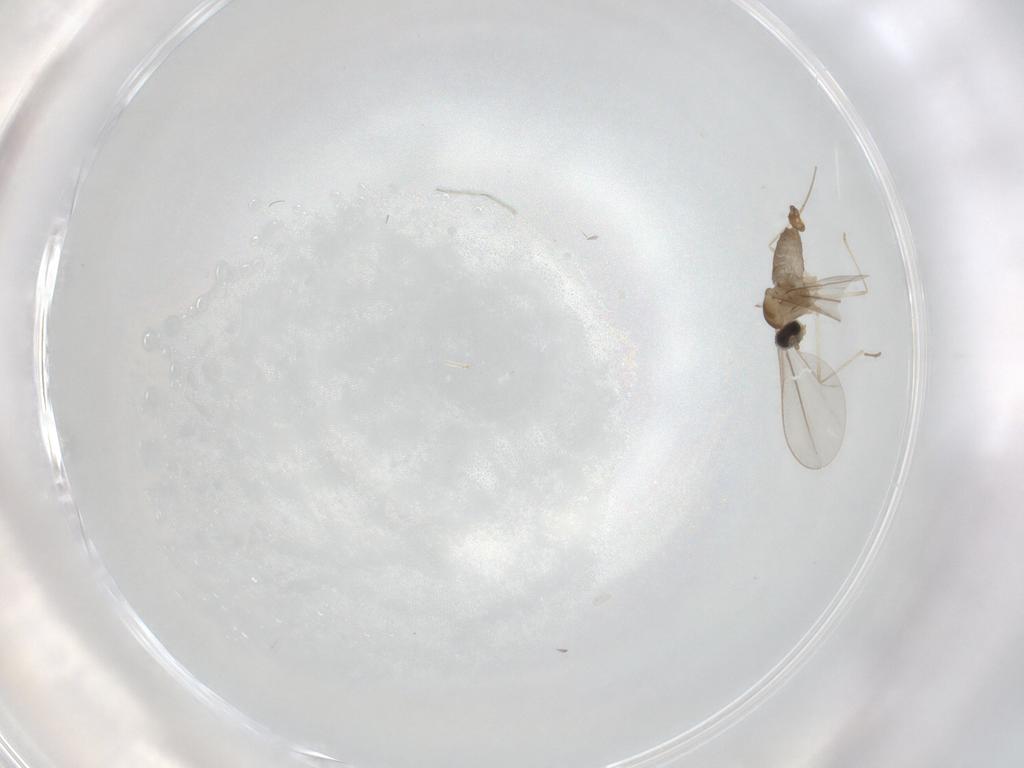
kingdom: Animalia
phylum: Arthropoda
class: Insecta
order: Diptera
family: Cecidomyiidae
